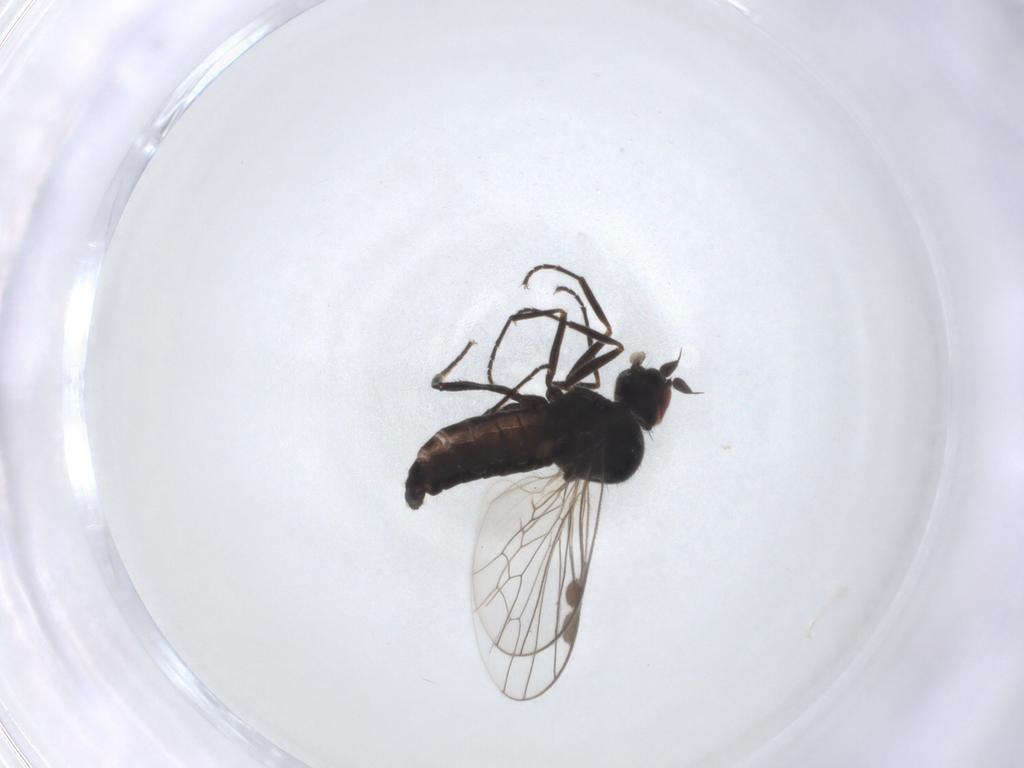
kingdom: Animalia
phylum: Arthropoda
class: Insecta
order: Diptera
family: Muscidae
